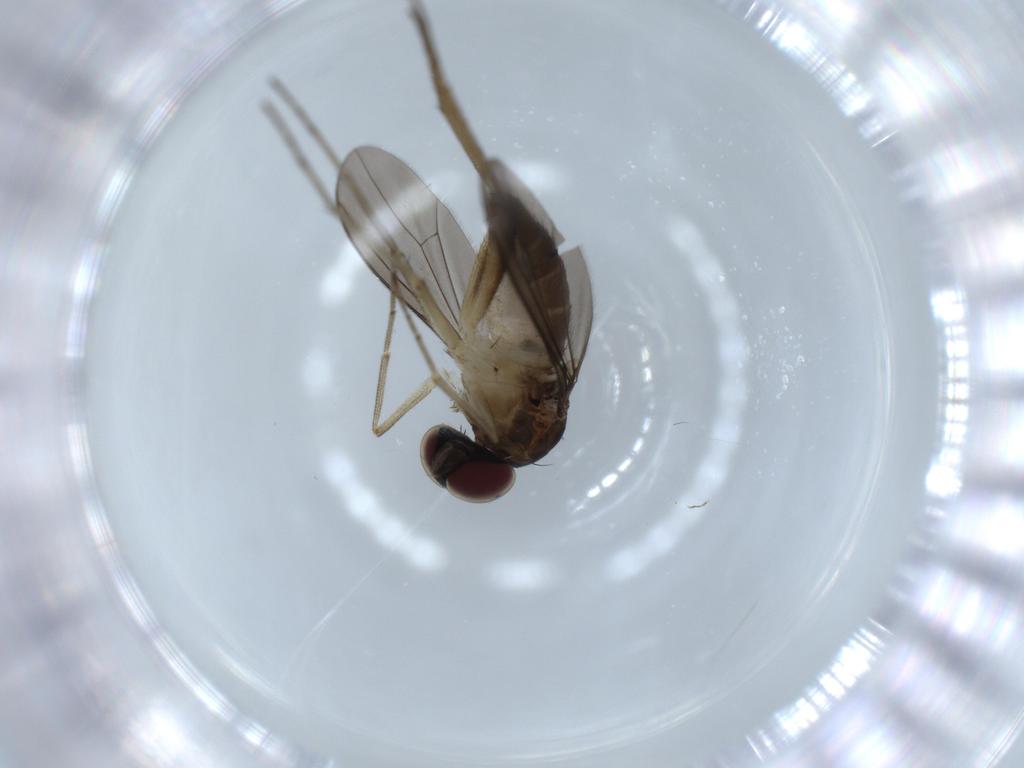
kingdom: Animalia
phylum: Arthropoda
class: Insecta
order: Diptera
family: Dolichopodidae
